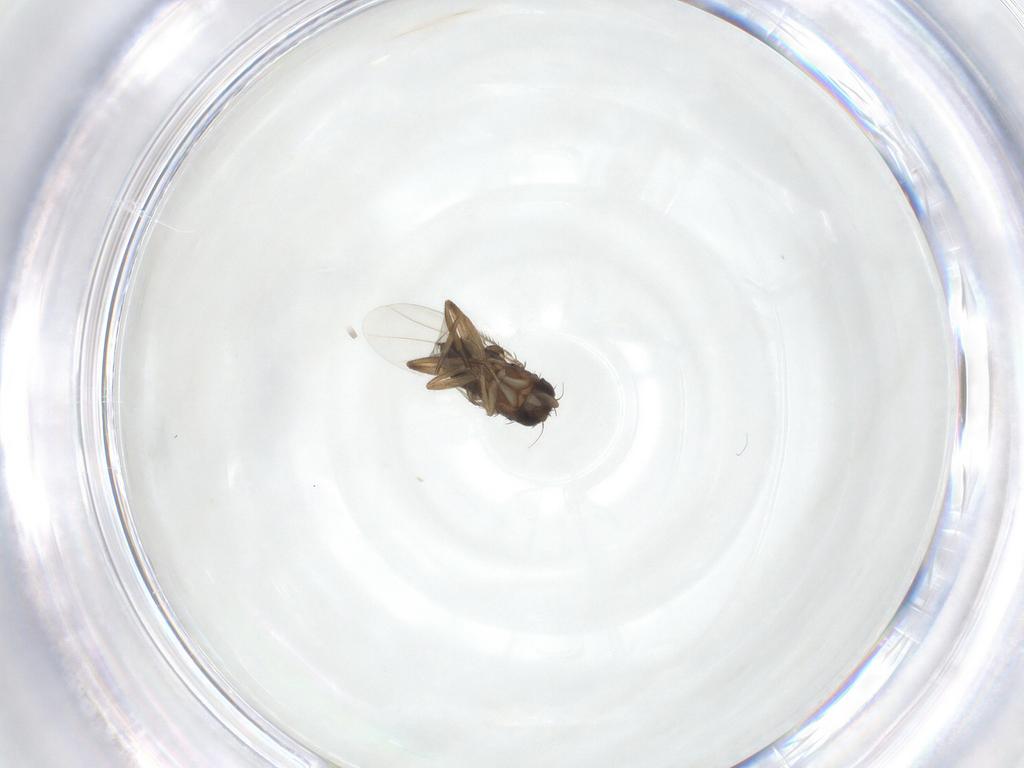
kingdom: Animalia
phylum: Arthropoda
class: Insecta
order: Diptera
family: Phoridae
